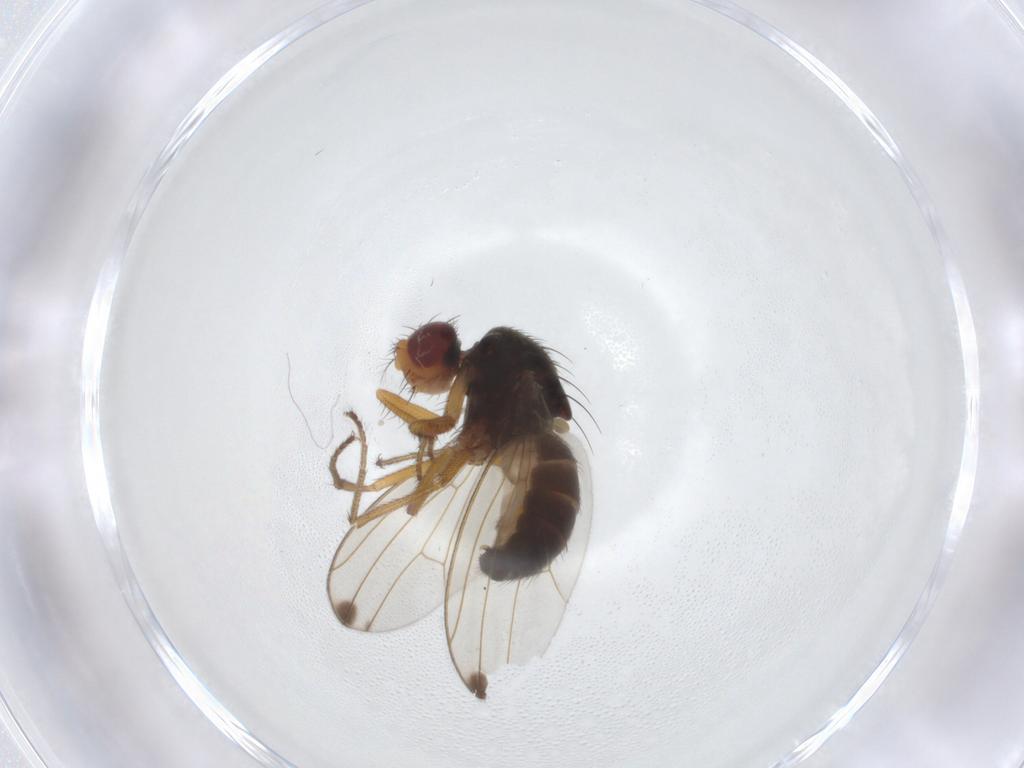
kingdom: Animalia
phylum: Arthropoda
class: Insecta
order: Diptera
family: Drosophilidae
